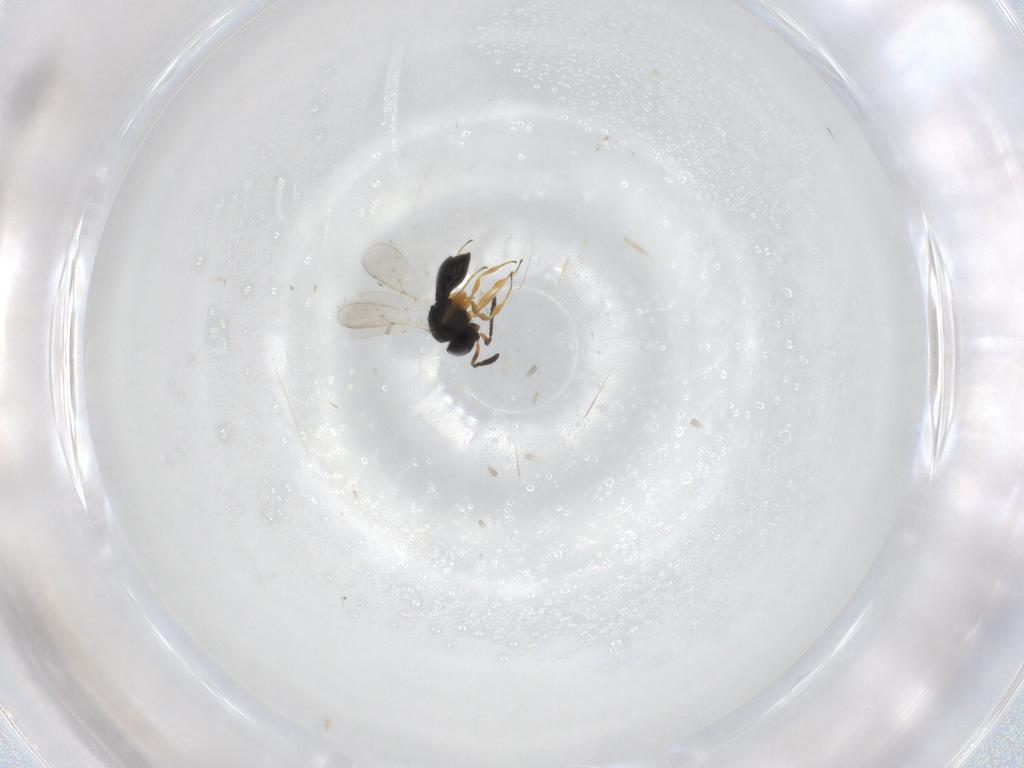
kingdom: Animalia
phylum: Arthropoda
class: Insecta
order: Hymenoptera
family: Scelionidae
